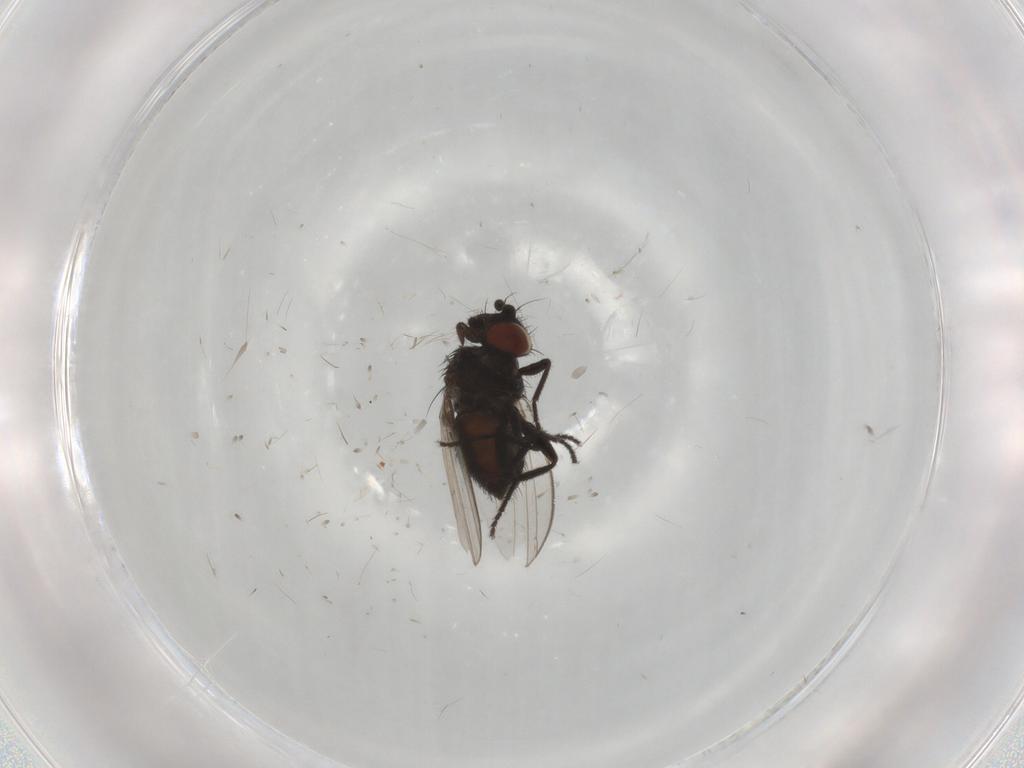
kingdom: Animalia
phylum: Arthropoda
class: Insecta
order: Diptera
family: Milichiidae
